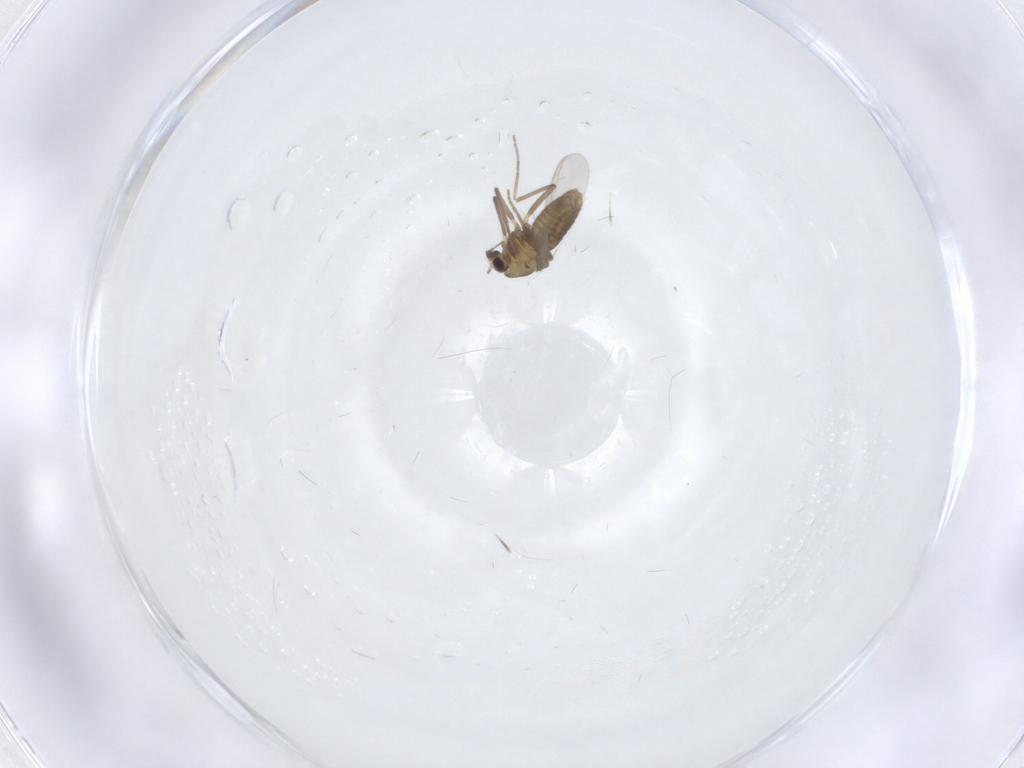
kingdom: Animalia
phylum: Arthropoda
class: Insecta
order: Diptera
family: Chironomidae
